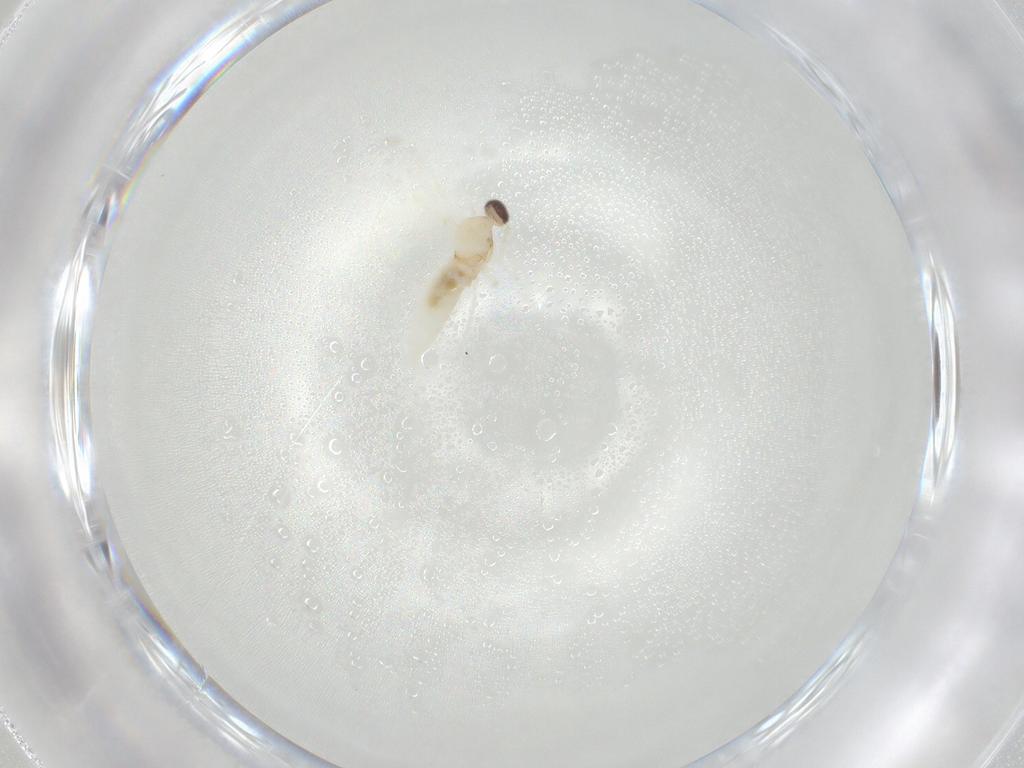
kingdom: Animalia
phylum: Arthropoda
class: Insecta
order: Diptera
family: Cecidomyiidae
